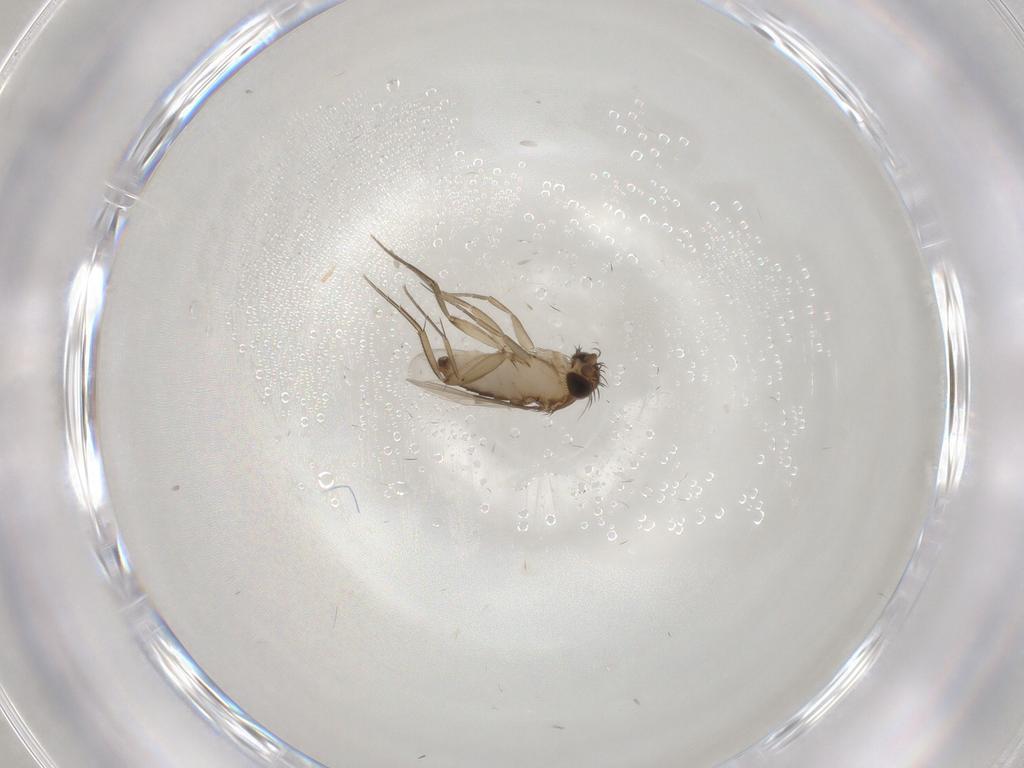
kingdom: Animalia
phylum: Arthropoda
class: Insecta
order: Diptera
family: Phoridae
